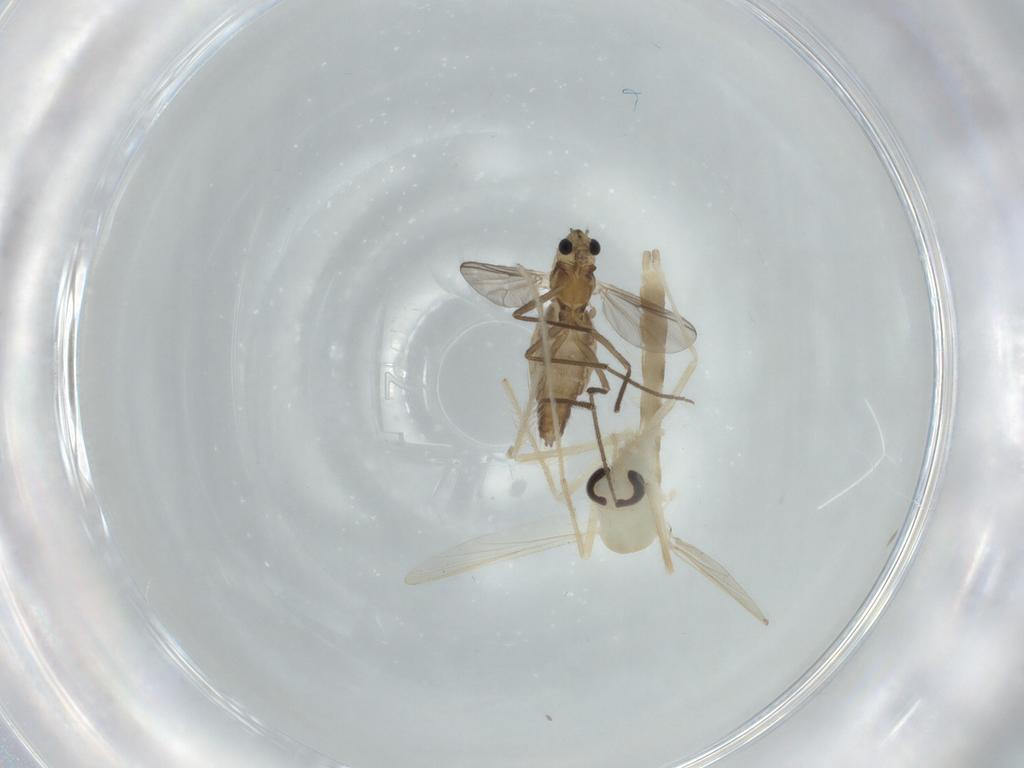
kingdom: Animalia
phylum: Arthropoda
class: Insecta
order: Diptera
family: Chironomidae
